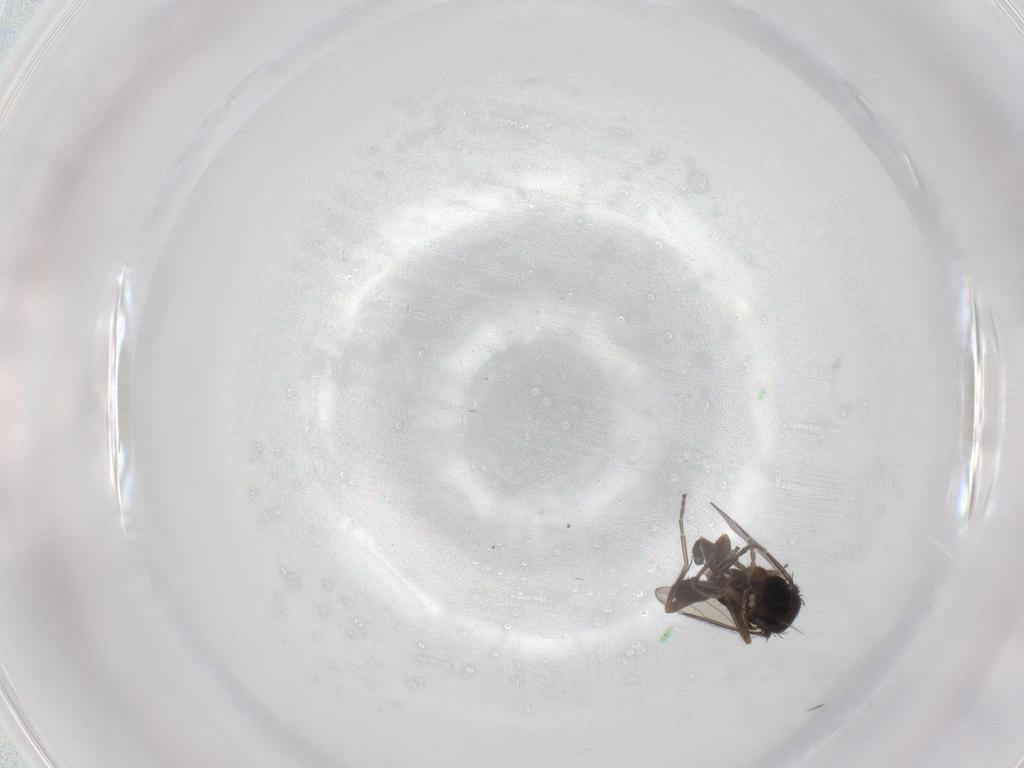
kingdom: Animalia
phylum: Arthropoda
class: Insecta
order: Diptera
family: Phoridae
